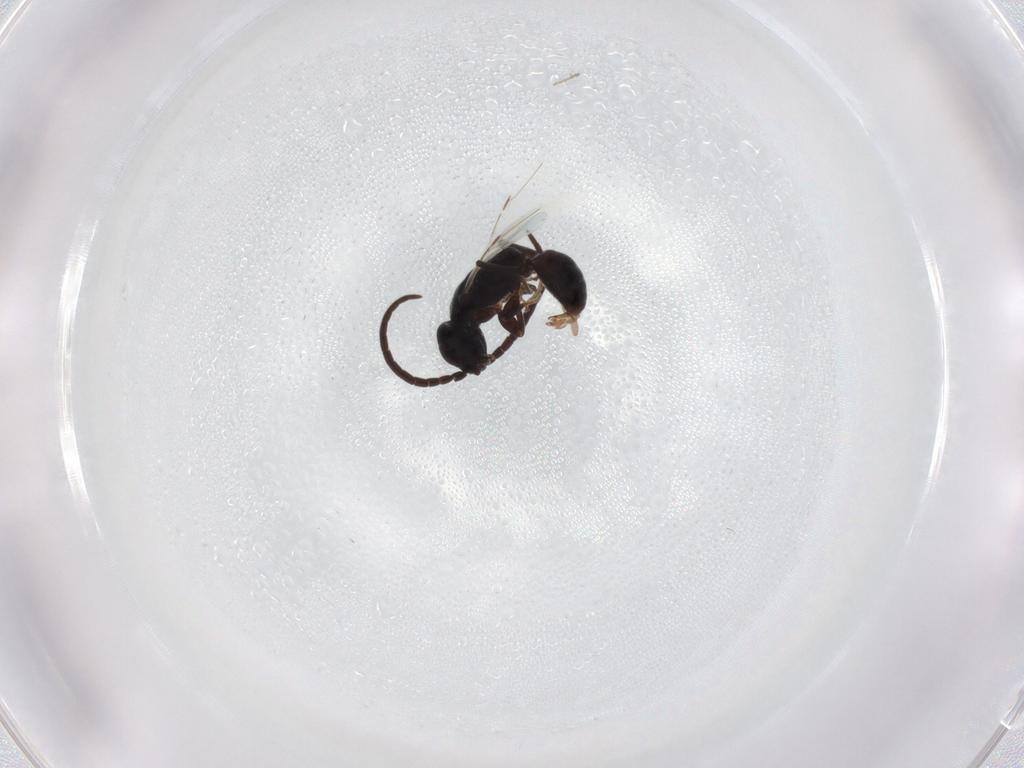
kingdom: Animalia
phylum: Arthropoda
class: Insecta
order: Hymenoptera
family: Bethylidae
